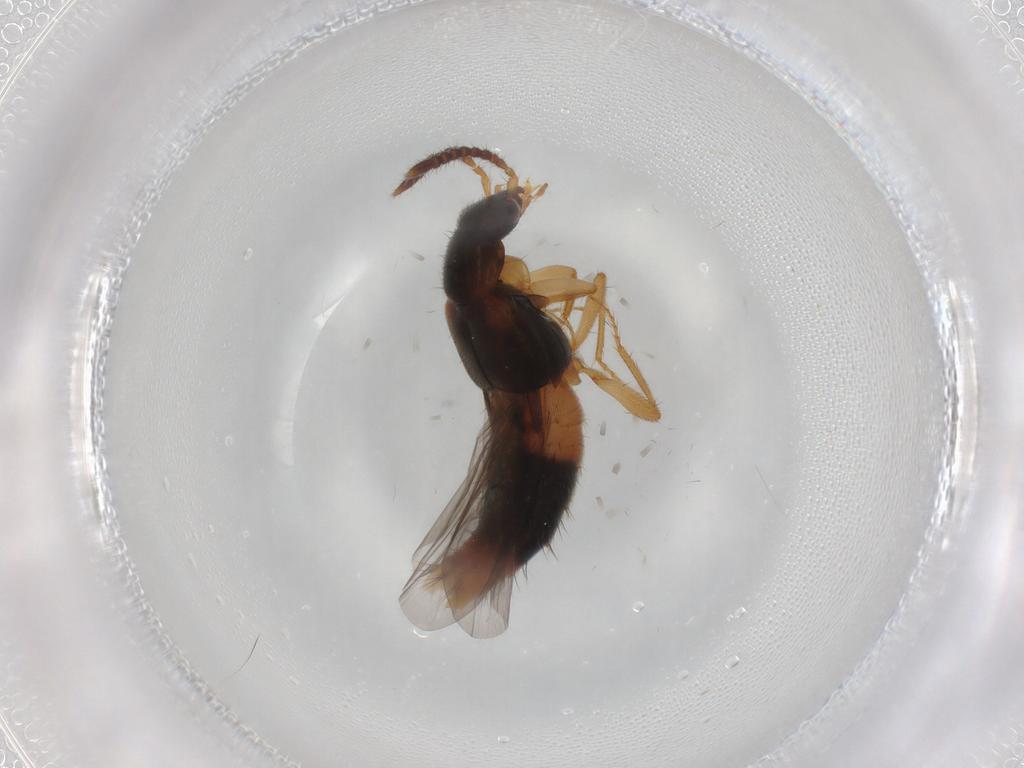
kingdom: Animalia
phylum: Arthropoda
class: Insecta
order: Coleoptera
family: Chrysomelidae
